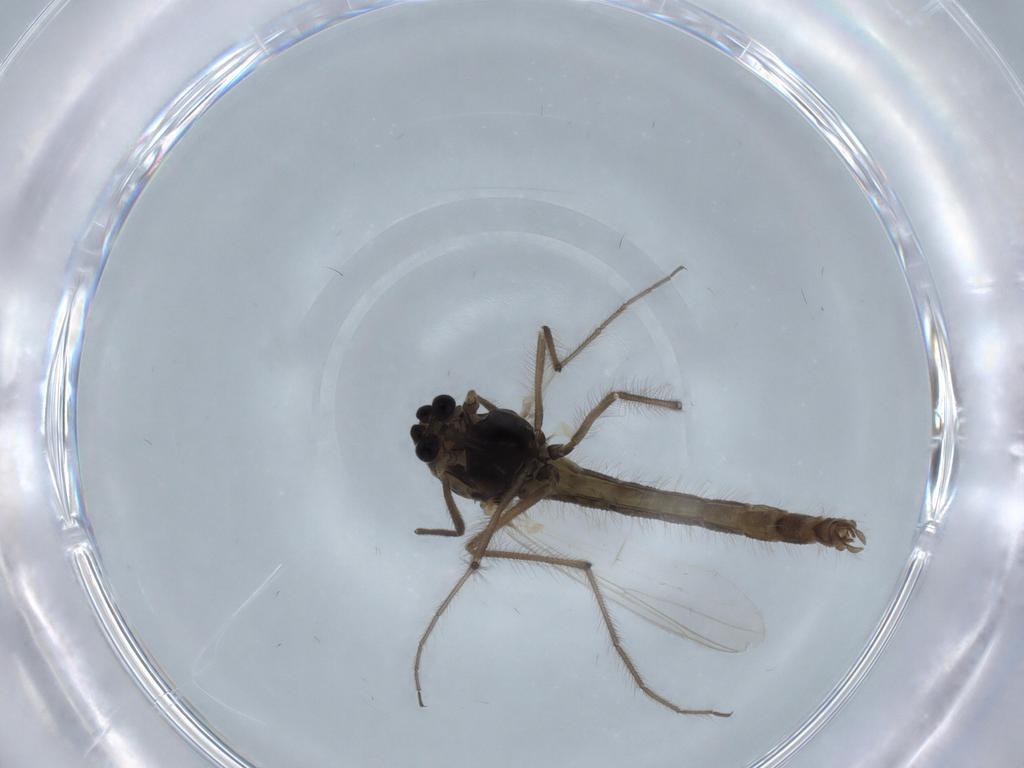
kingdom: Animalia
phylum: Arthropoda
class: Insecta
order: Diptera
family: Chironomidae
